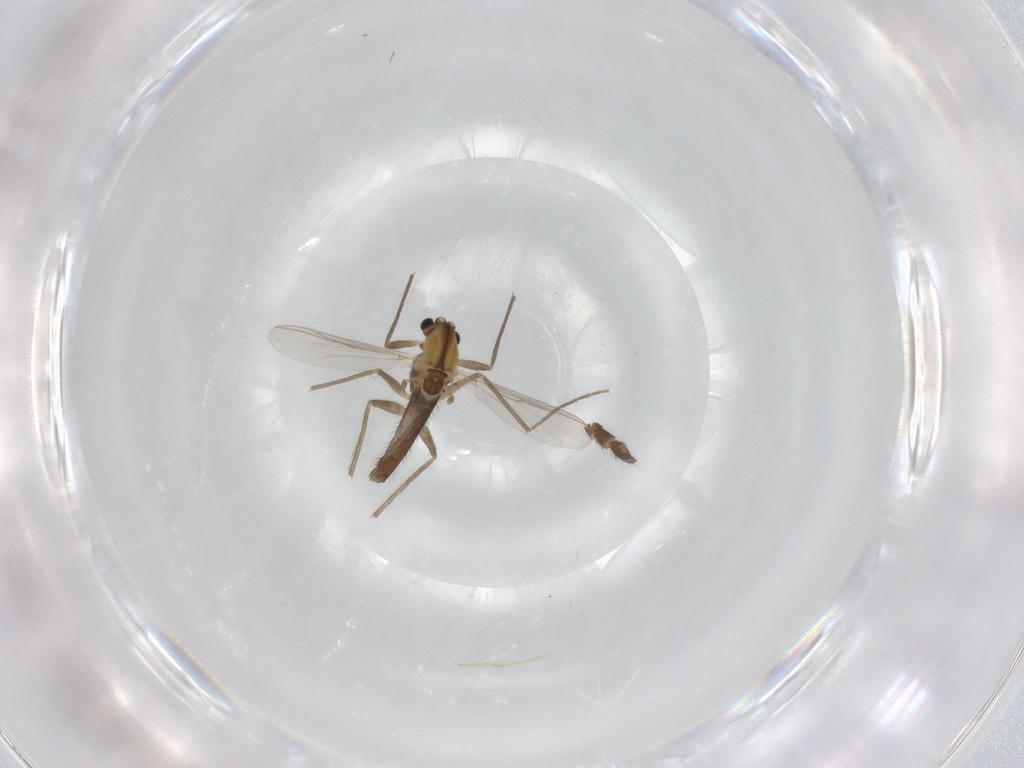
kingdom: Animalia
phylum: Arthropoda
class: Insecta
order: Diptera
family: Chironomidae
